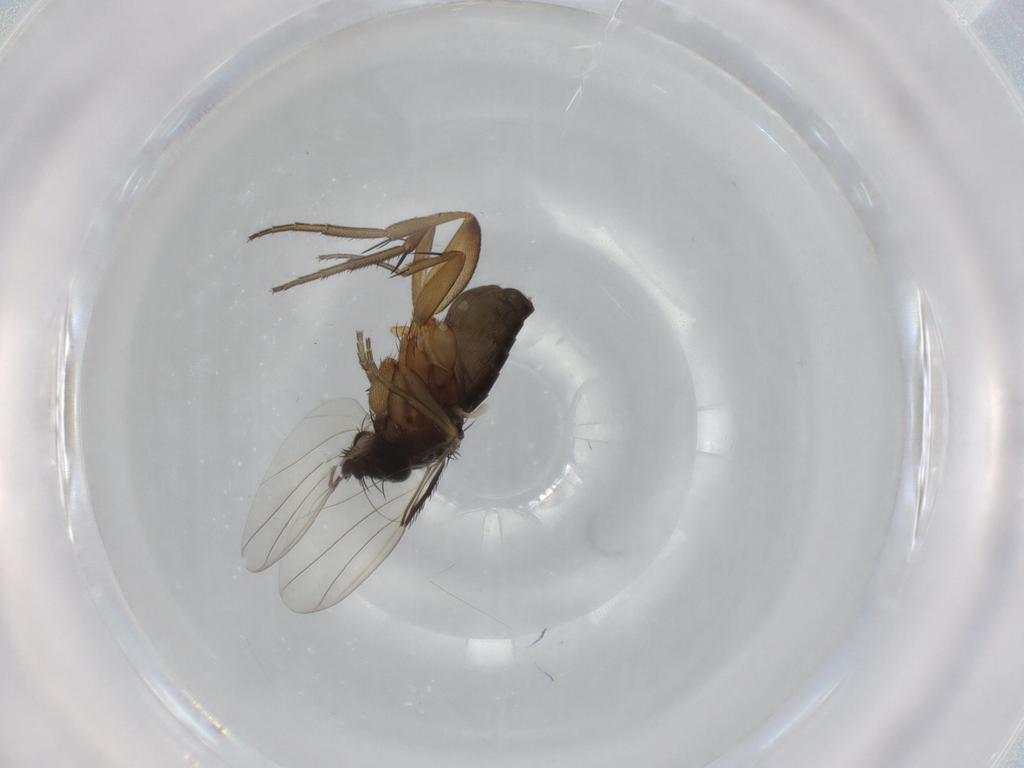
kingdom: Animalia
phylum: Arthropoda
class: Insecta
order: Diptera
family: Phoridae
